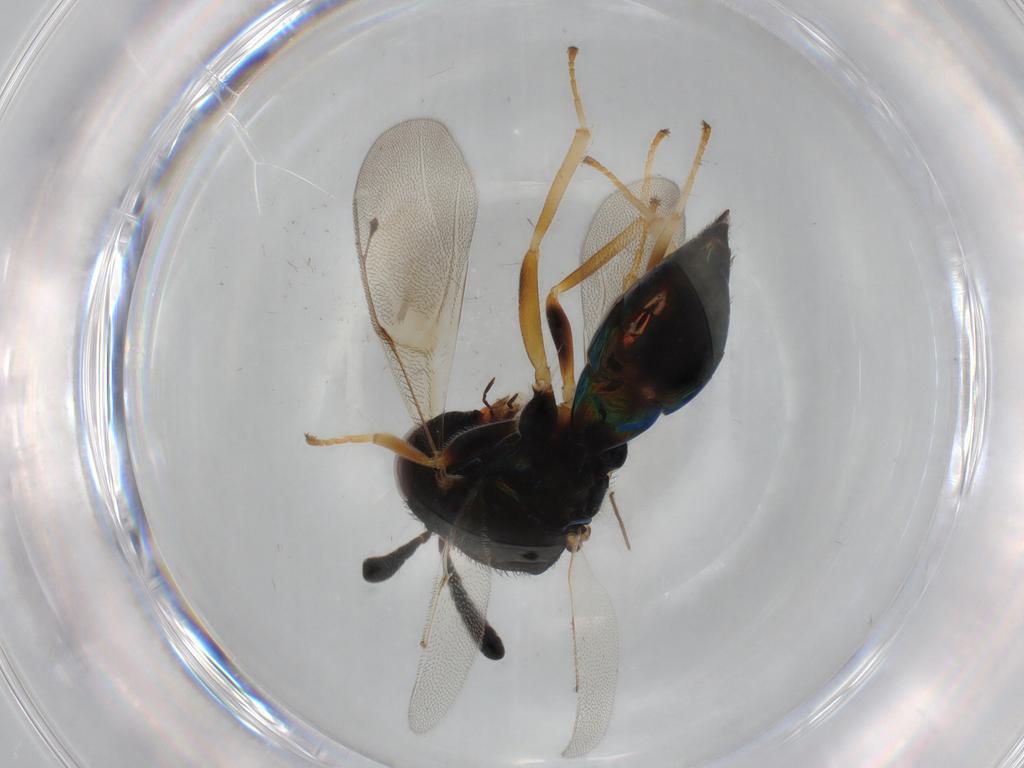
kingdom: Animalia
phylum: Arthropoda
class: Insecta
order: Hymenoptera
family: Pteromalidae
